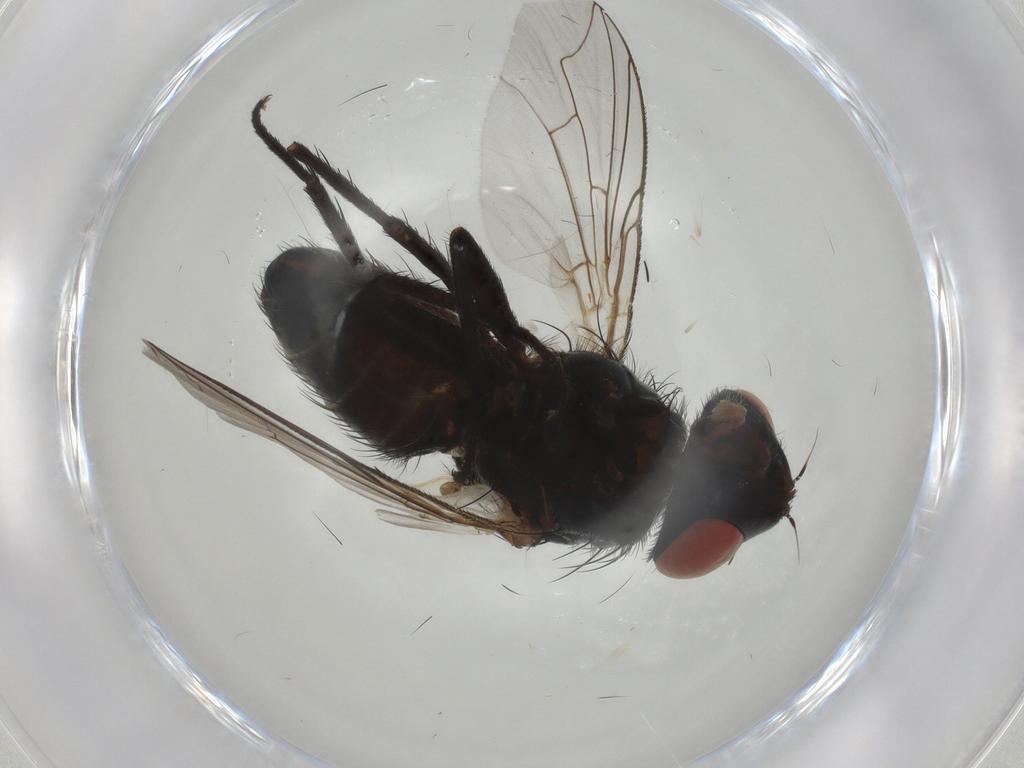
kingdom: Animalia
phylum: Arthropoda
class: Insecta
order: Diptera
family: Sarcophagidae
